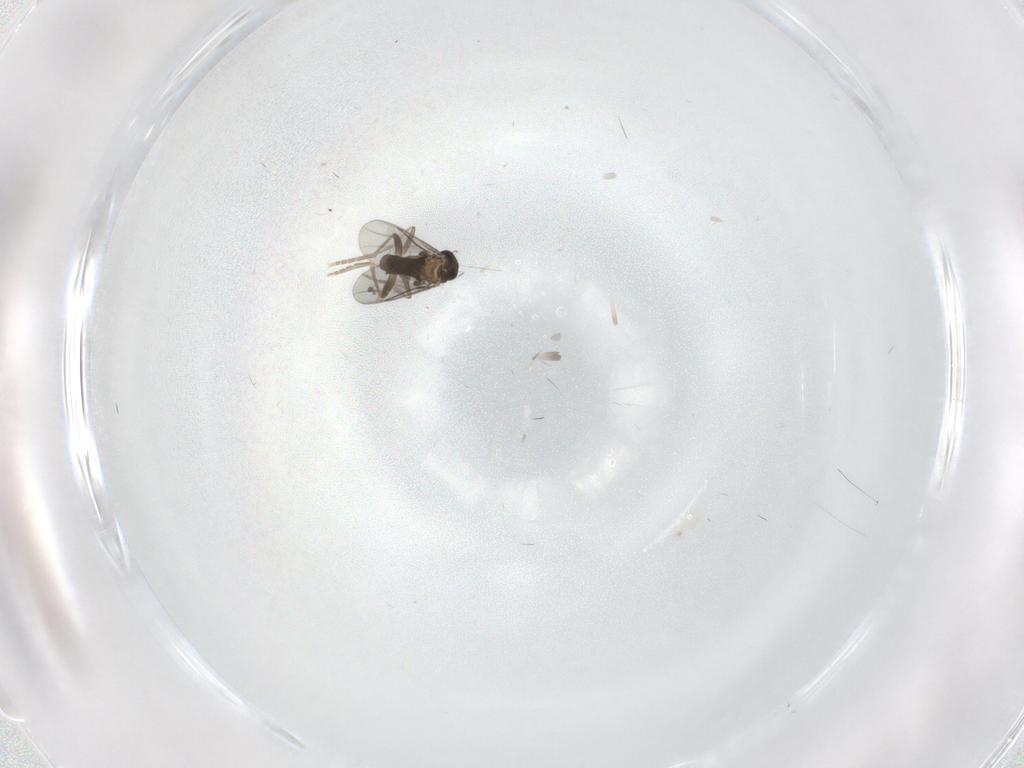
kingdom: Animalia
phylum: Arthropoda
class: Insecta
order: Diptera
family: Cecidomyiidae
